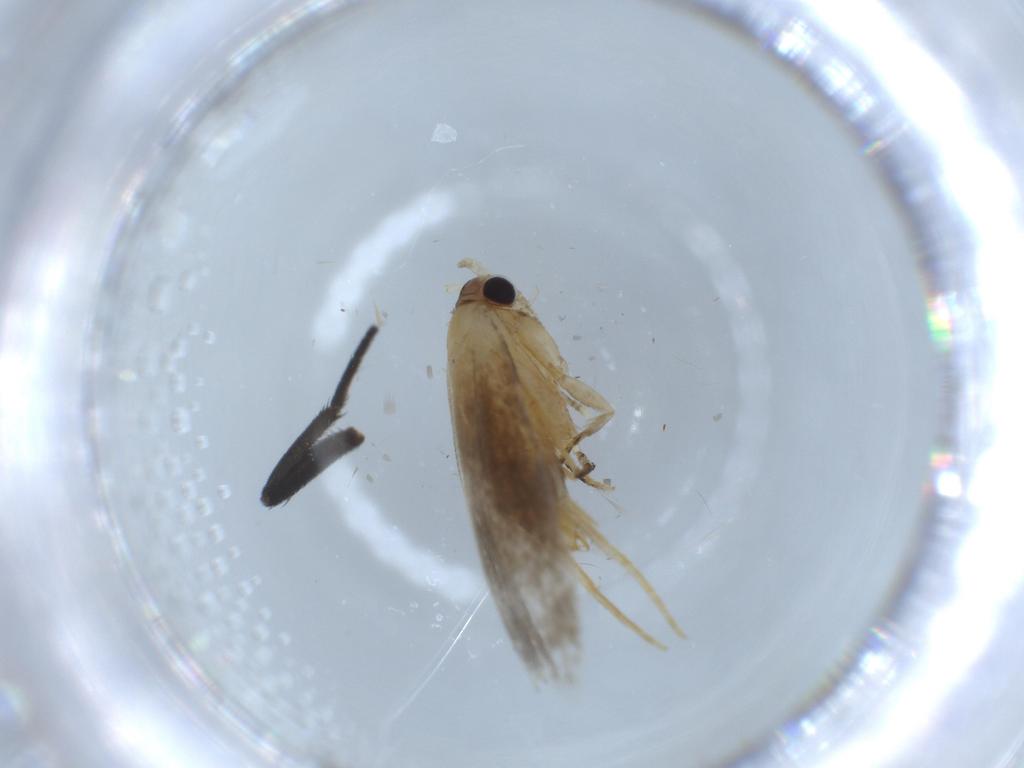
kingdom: Animalia
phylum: Arthropoda
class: Insecta
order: Lepidoptera
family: Tineidae
